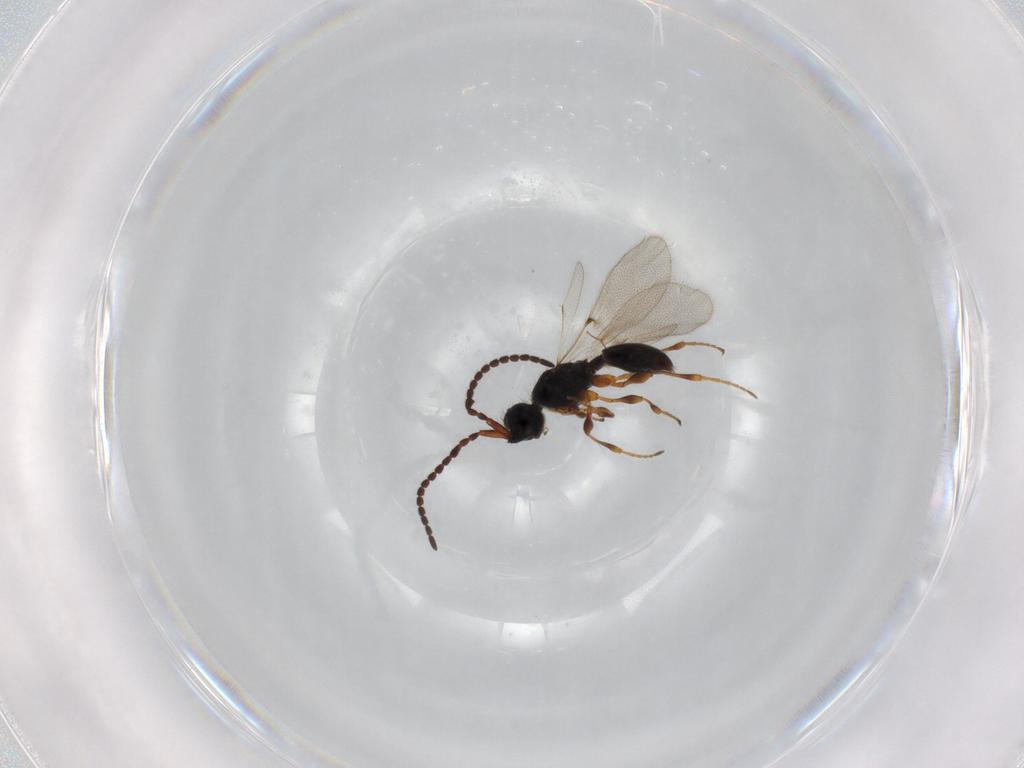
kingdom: Animalia
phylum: Arthropoda
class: Insecta
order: Hymenoptera
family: Diapriidae
